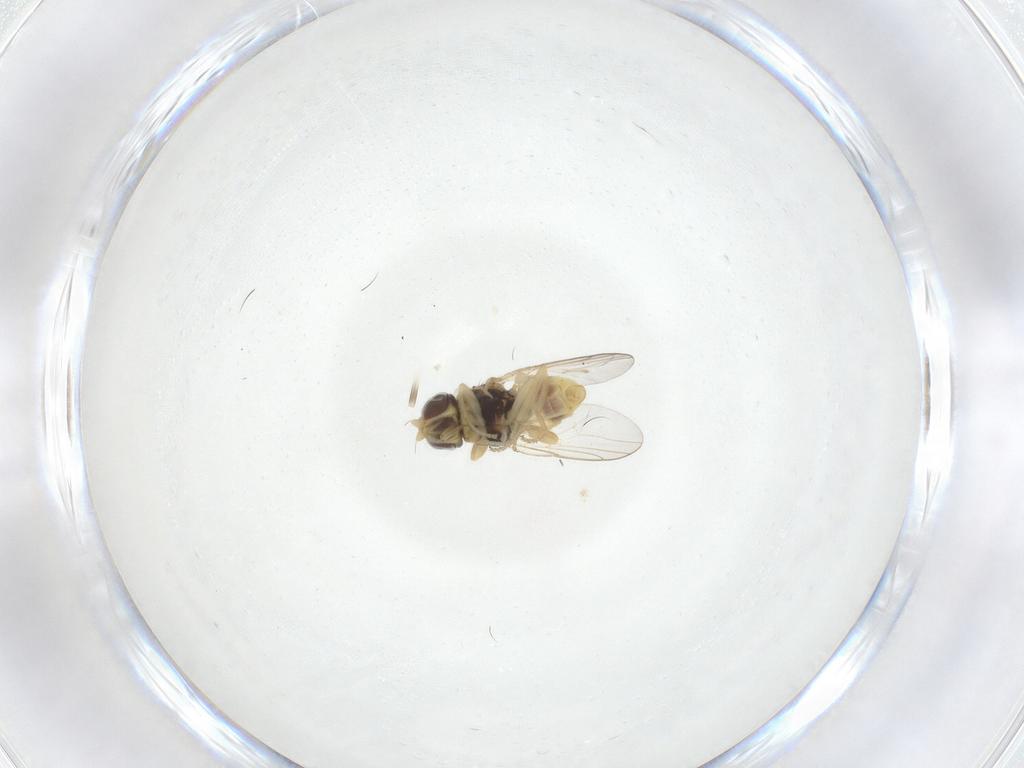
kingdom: Animalia
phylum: Arthropoda
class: Insecta
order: Diptera
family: Chloropidae
